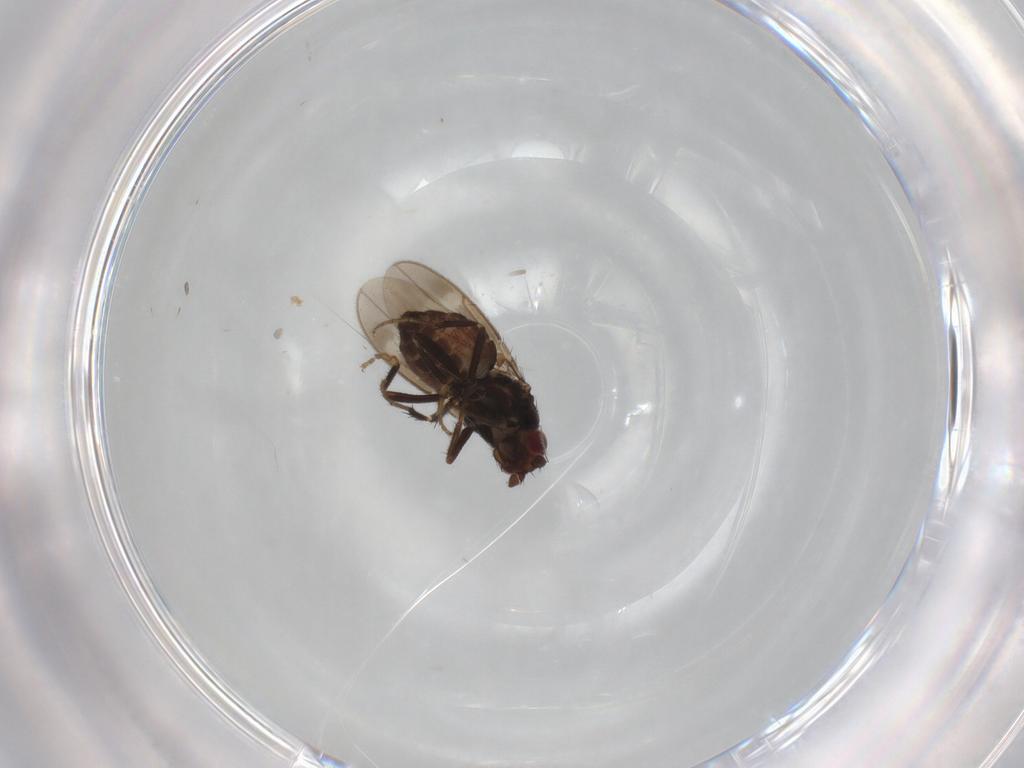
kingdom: Animalia
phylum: Arthropoda
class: Insecta
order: Diptera
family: Sphaeroceridae
